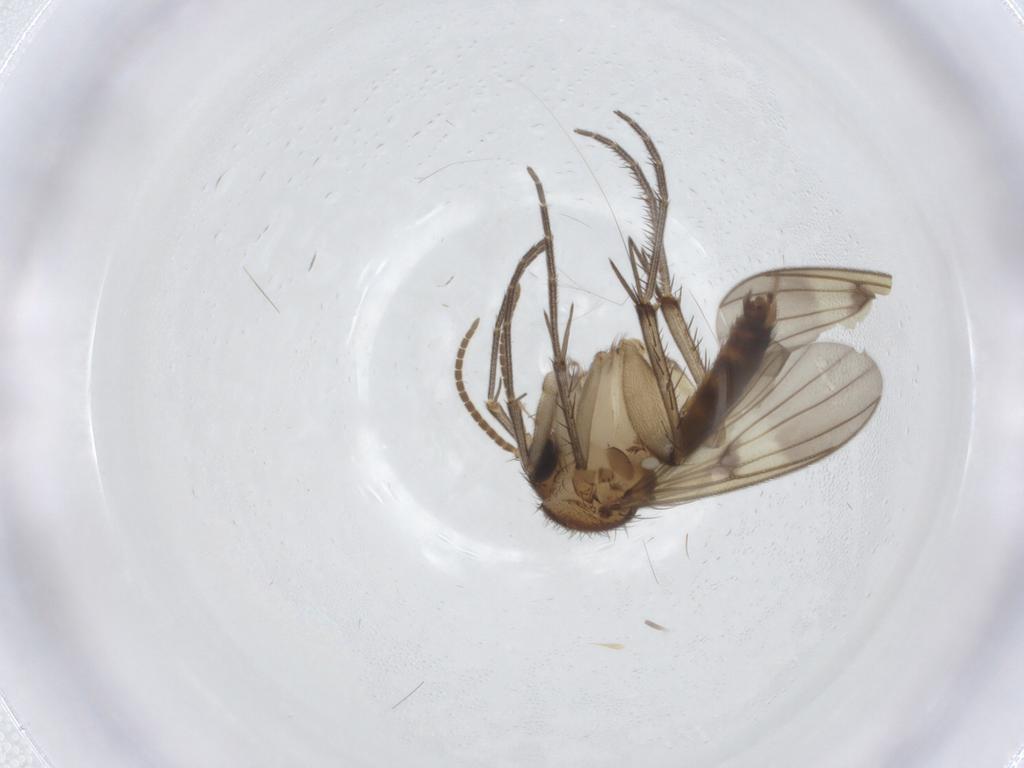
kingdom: Animalia
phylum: Arthropoda
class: Insecta
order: Diptera
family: Mycetophilidae
